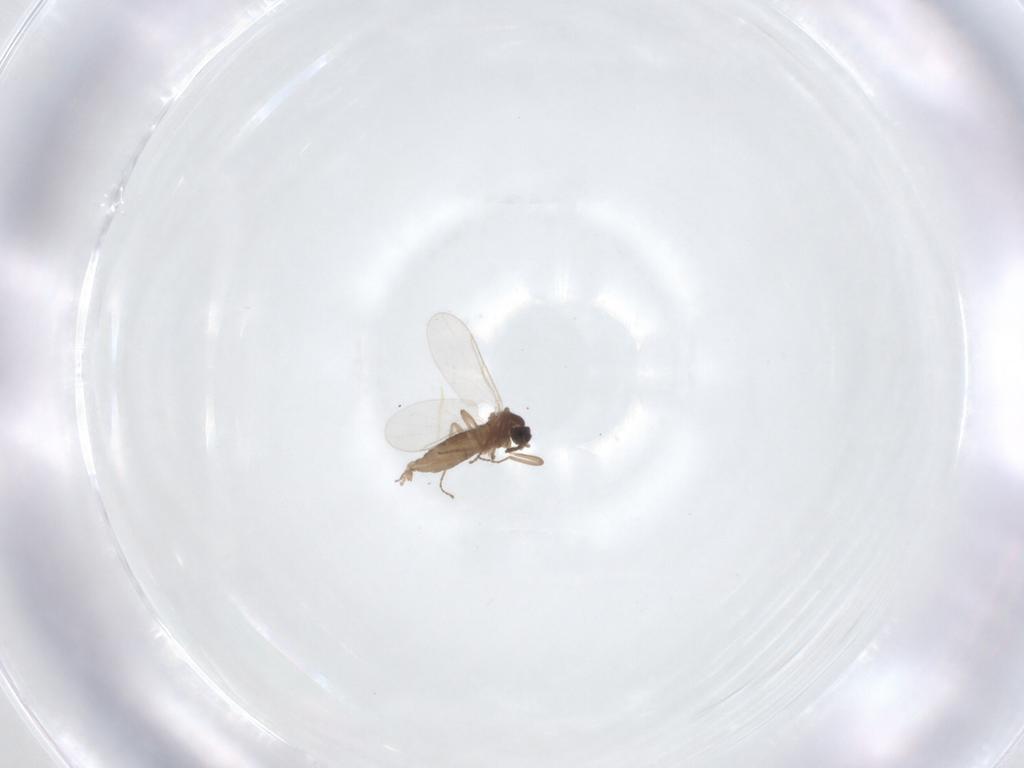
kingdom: Animalia
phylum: Arthropoda
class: Insecta
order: Diptera
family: Cecidomyiidae
